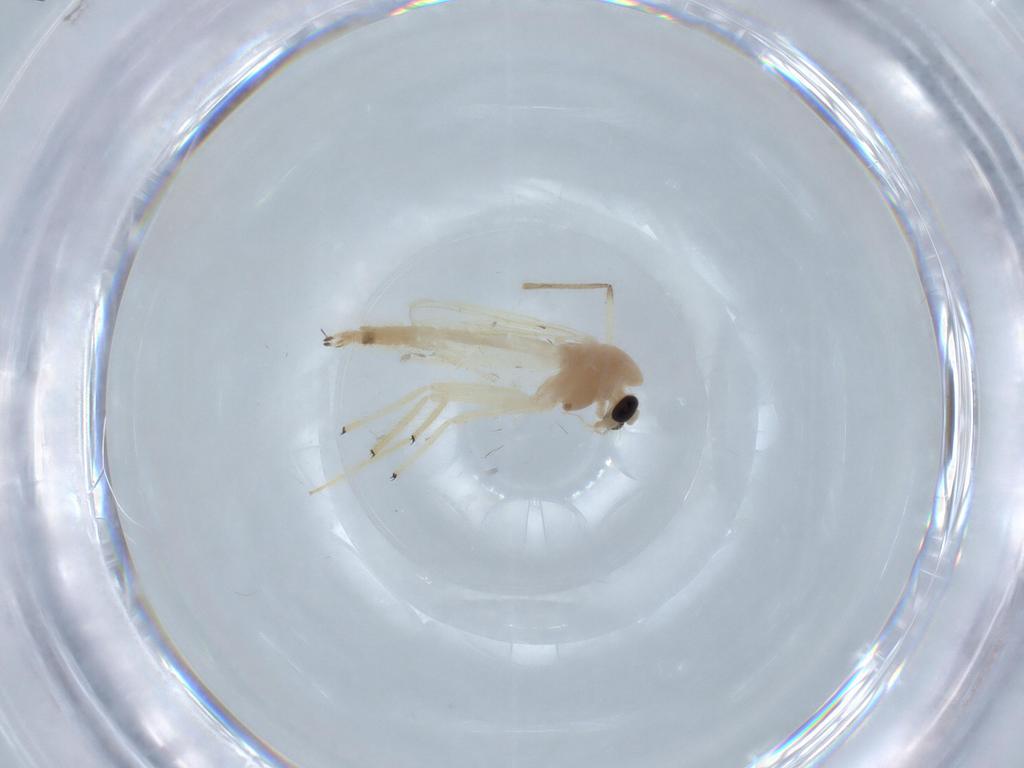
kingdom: Animalia
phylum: Arthropoda
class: Insecta
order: Diptera
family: Chironomidae
